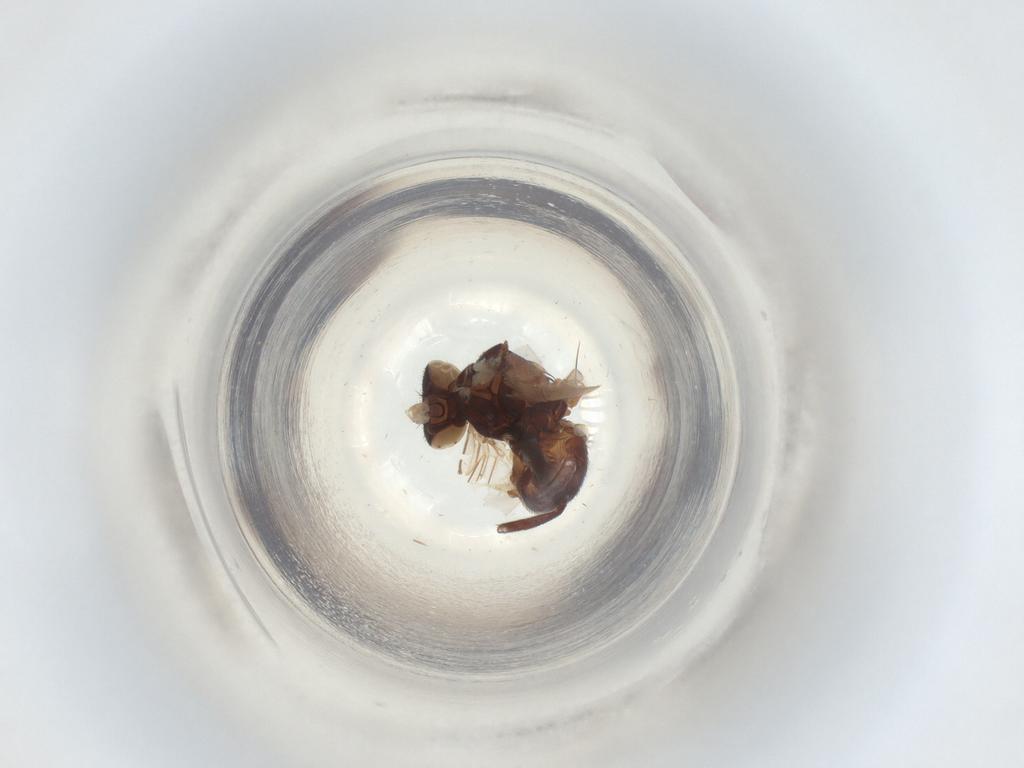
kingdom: Animalia
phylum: Arthropoda
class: Insecta
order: Diptera
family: Agromyzidae
